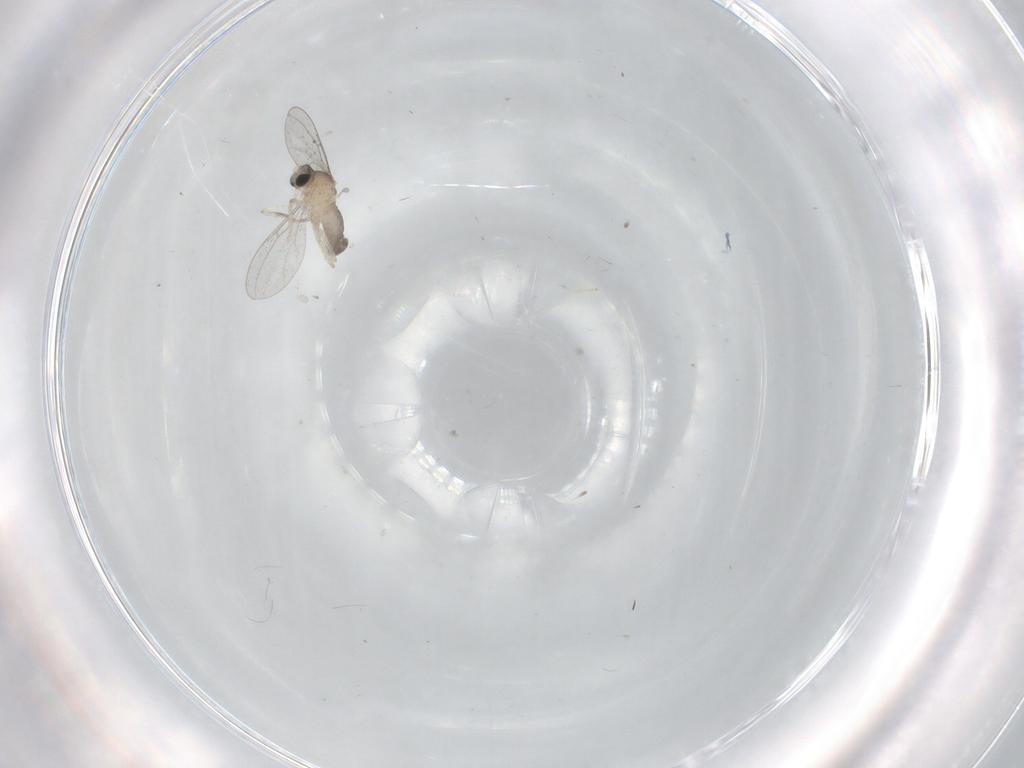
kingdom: Animalia
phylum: Arthropoda
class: Insecta
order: Diptera
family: Cecidomyiidae
